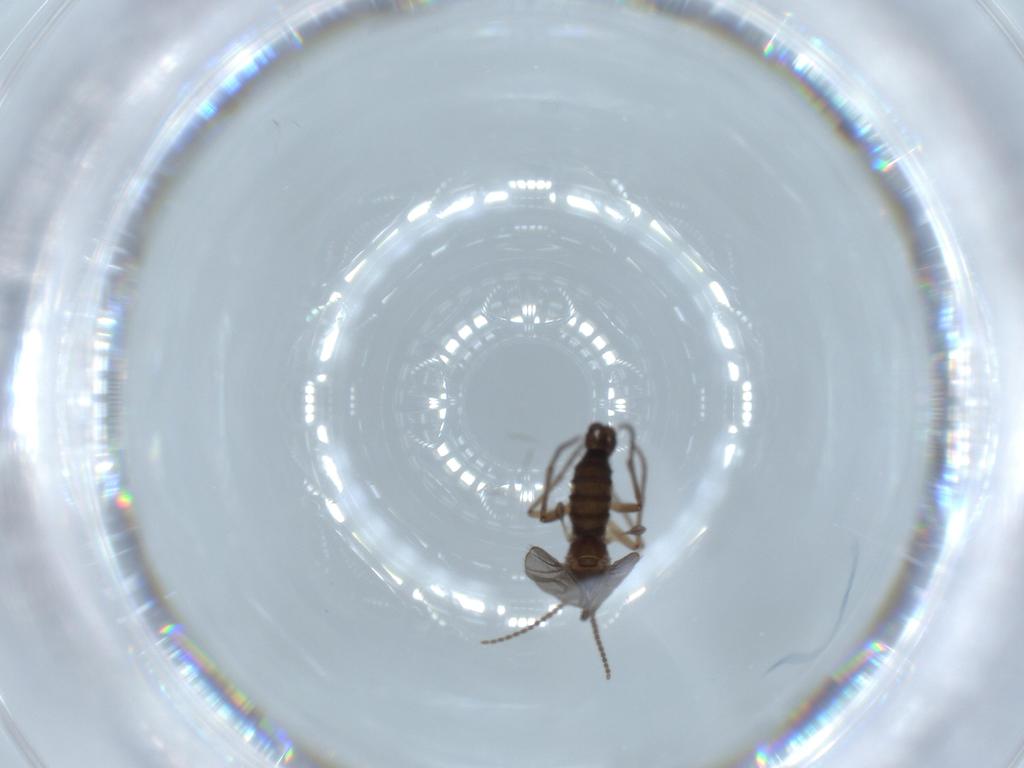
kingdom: Animalia
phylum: Arthropoda
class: Insecta
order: Diptera
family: Sciaridae
